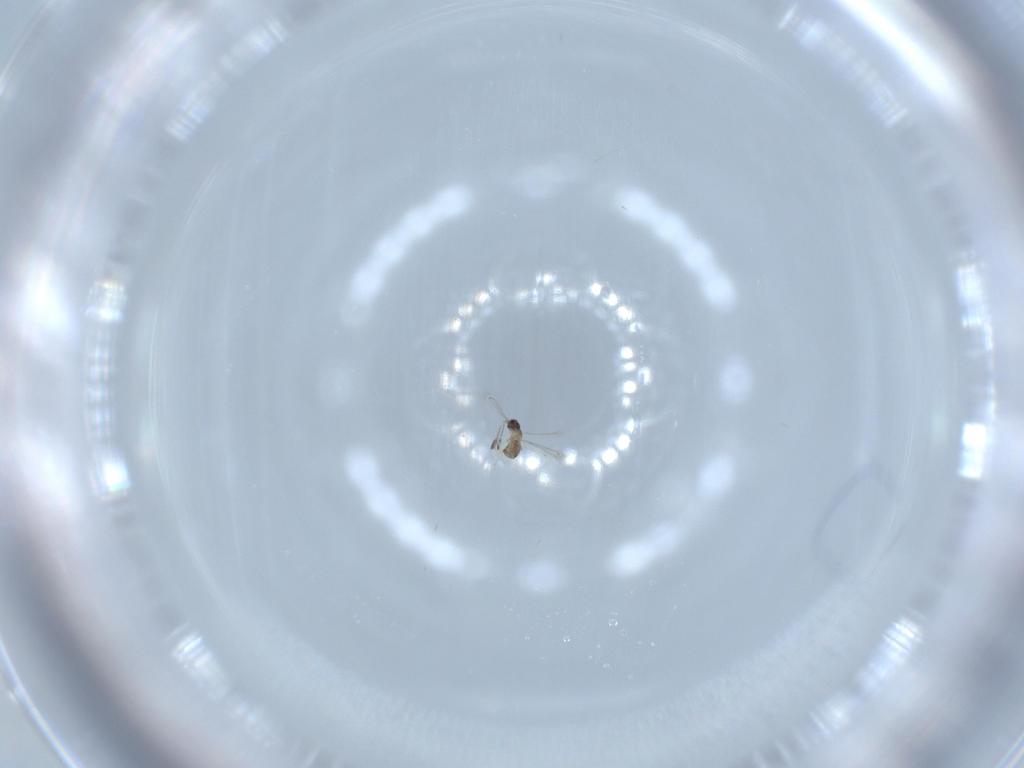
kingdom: Animalia
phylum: Arthropoda
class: Insecta
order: Hymenoptera
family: Mymaridae
